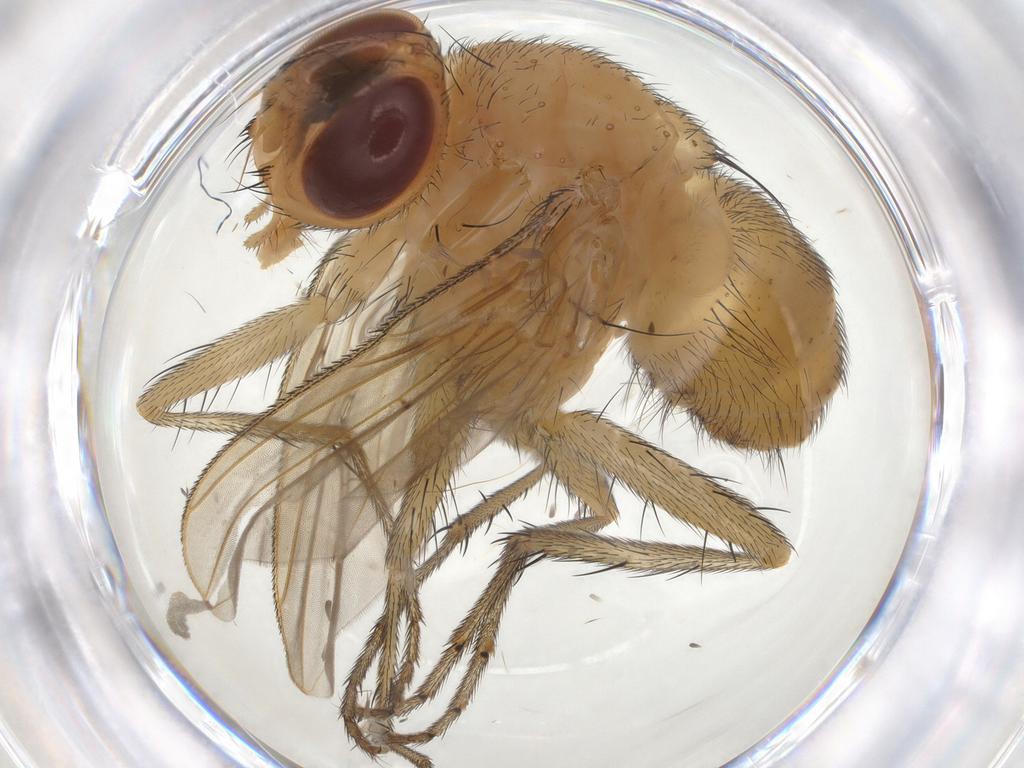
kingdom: Animalia
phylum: Arthropoda
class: Insecta
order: Diptera
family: Tachinidae
